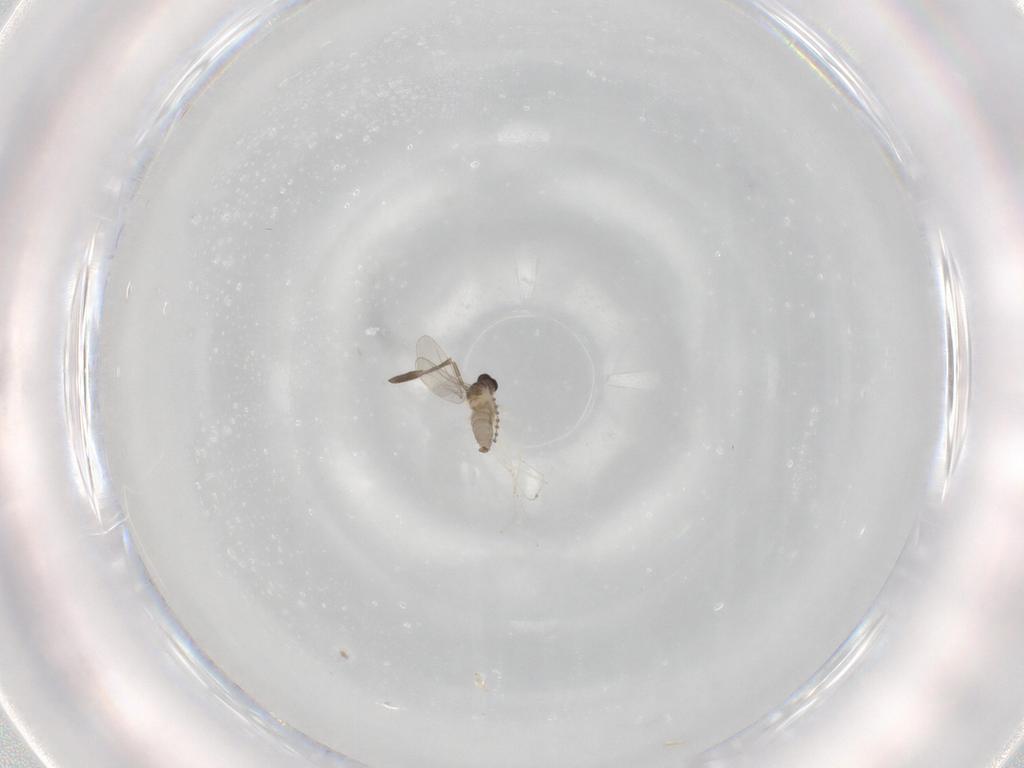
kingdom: Animalia
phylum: Arthropoda
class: Insecta
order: Diptera
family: Cecidomyiidae
